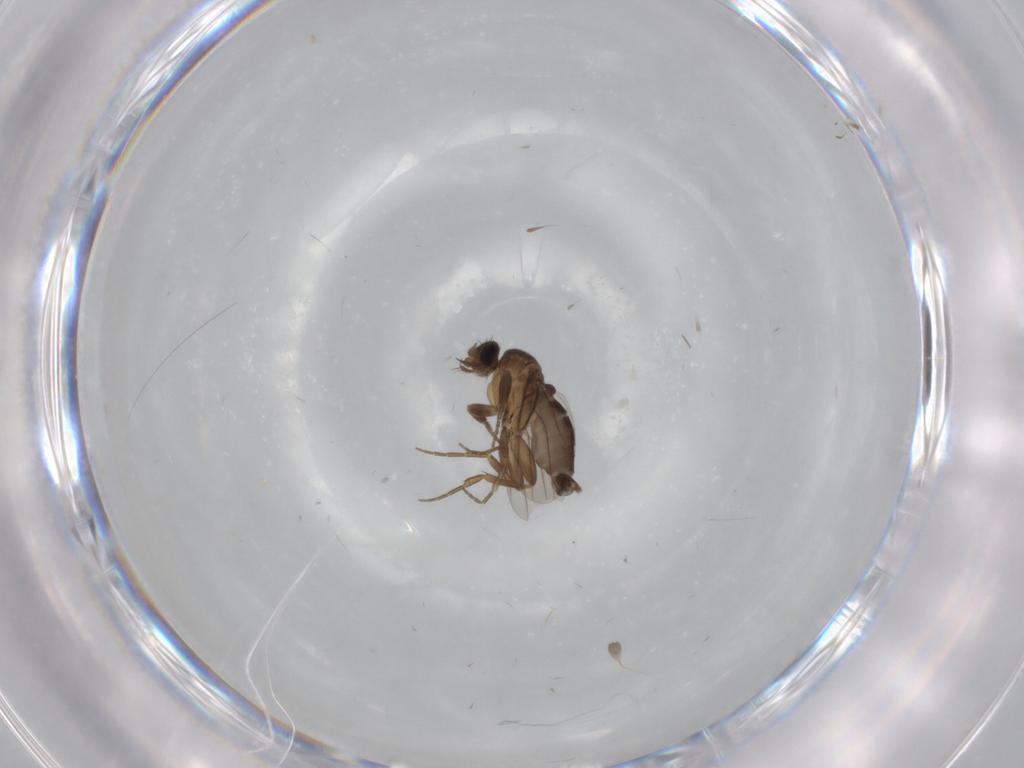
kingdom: Animalia
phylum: Arthropoda
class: Insecta
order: Diptera
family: Phoridae
